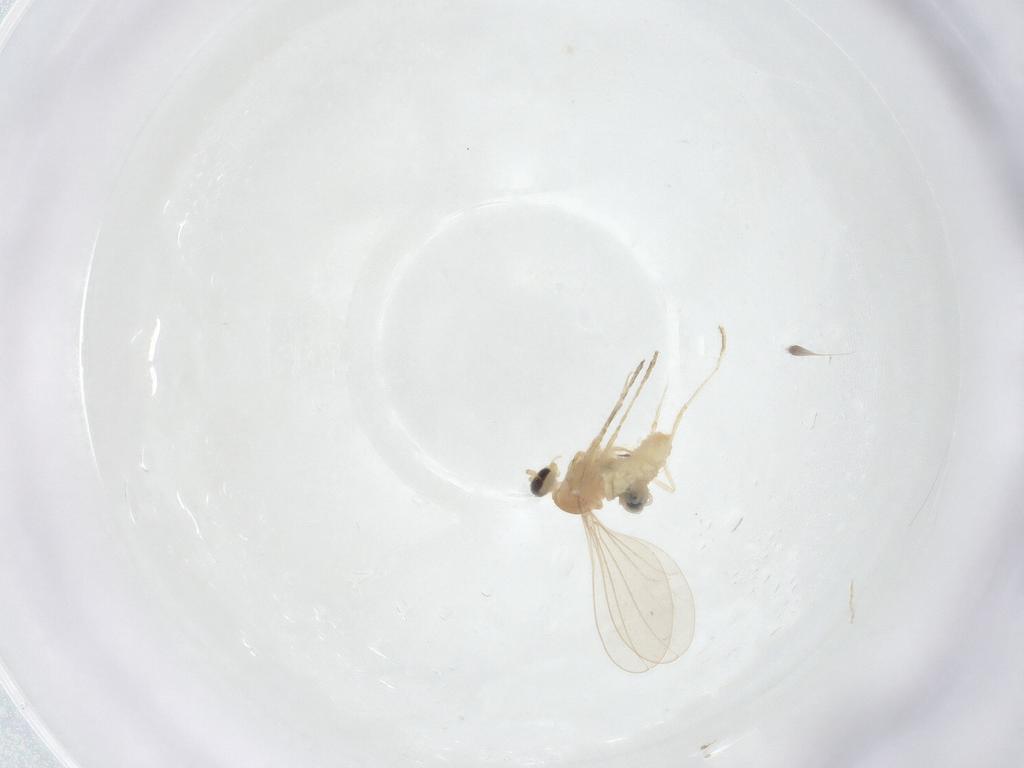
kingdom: Animalia
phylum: Arthropoda
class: Insecta
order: Diptera
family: Cecidomyiidae
